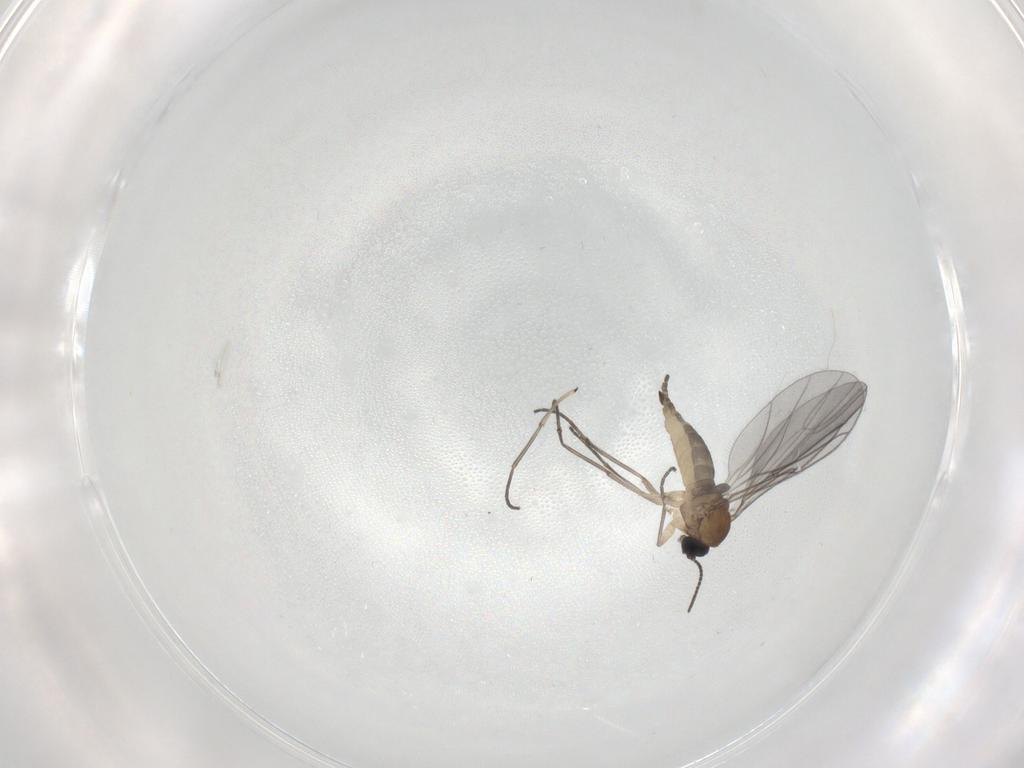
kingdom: Animalia
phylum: Arthropoda
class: Insecta
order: Diptera
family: Sciaridae
